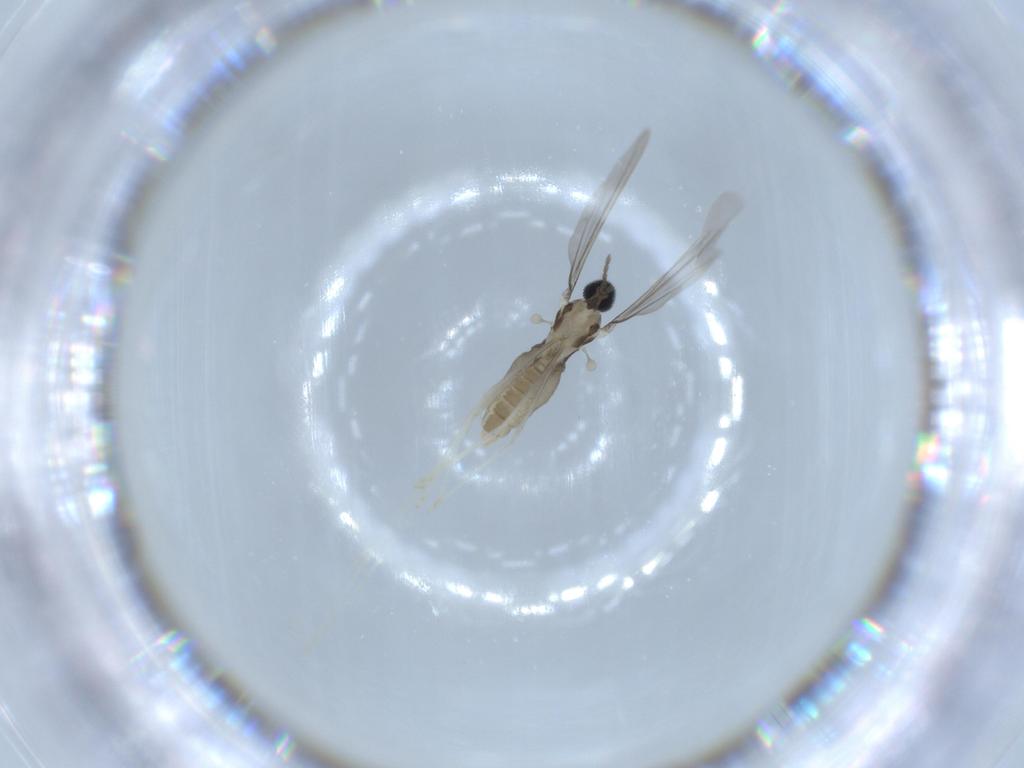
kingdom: Animalia
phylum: Arthropoda
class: Insecta
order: Diptera
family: Cecidomyiidae
